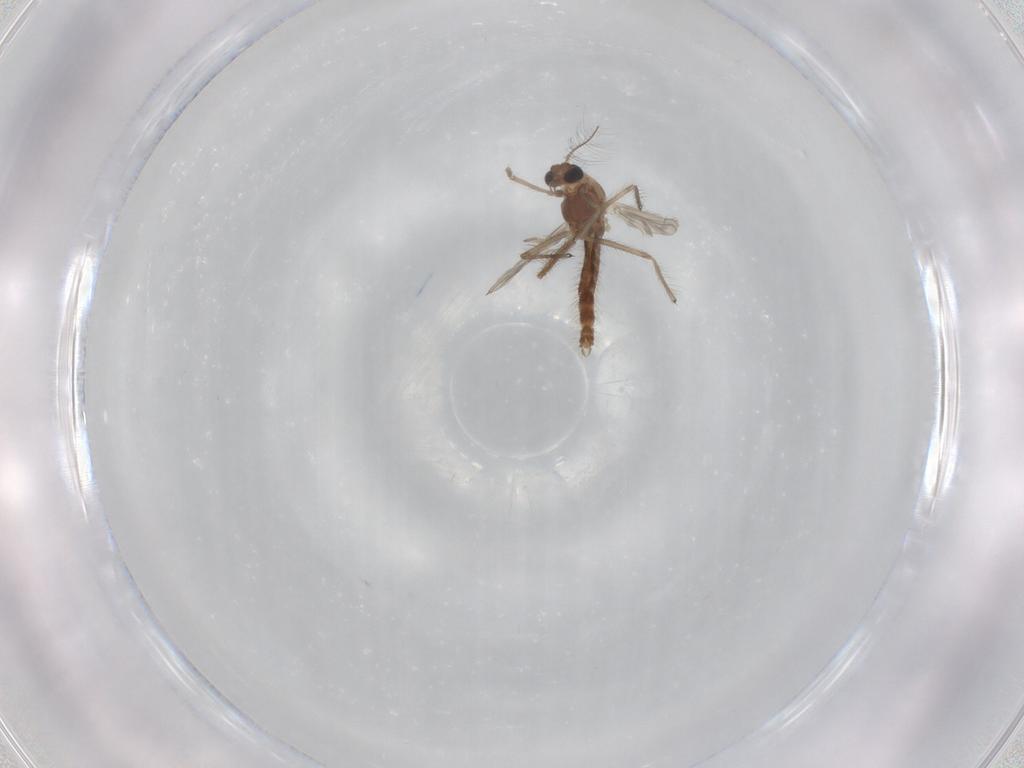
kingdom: Animalia
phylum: Arthropoda
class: Insecta
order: Diptera
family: Chironomidae
